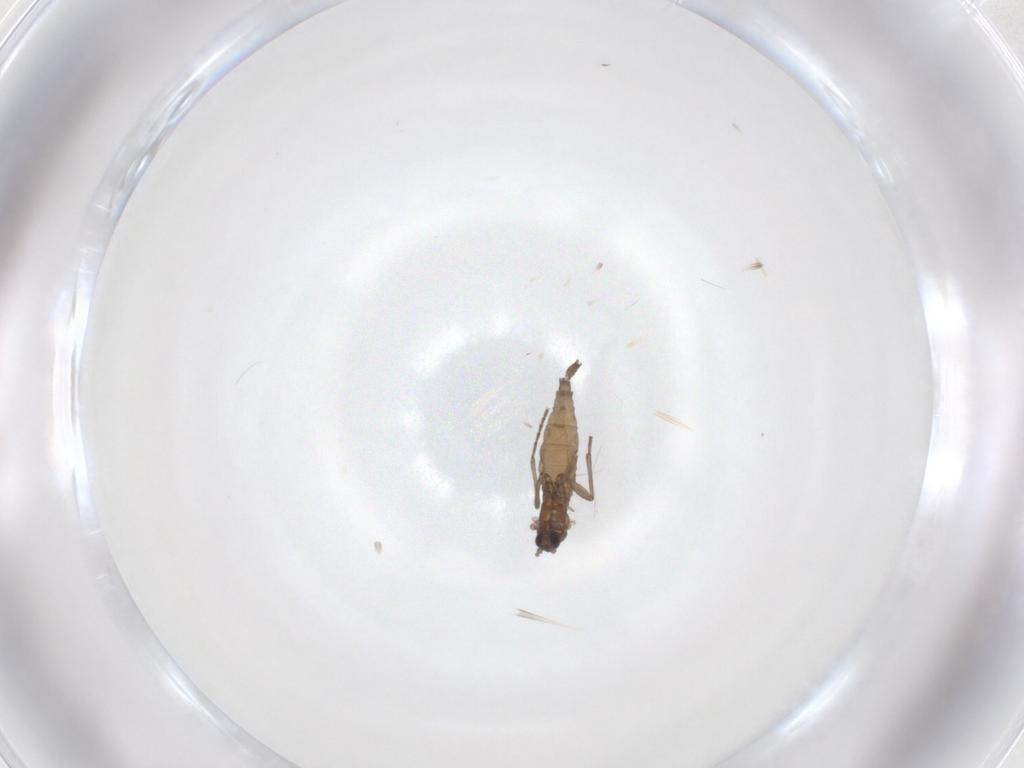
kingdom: Animalia
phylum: Arthropoda
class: Insecta
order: Diptera
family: Sciaridae
